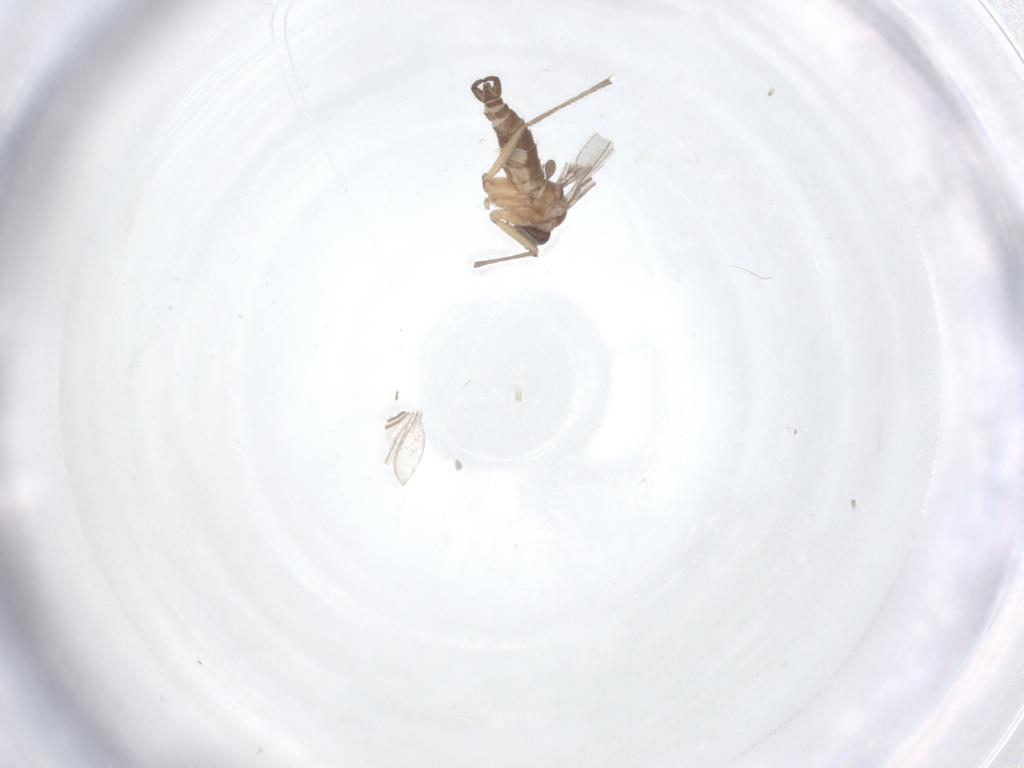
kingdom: Animalia
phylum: Arthropoda
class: Insecta
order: Diptera
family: Sciaridae
